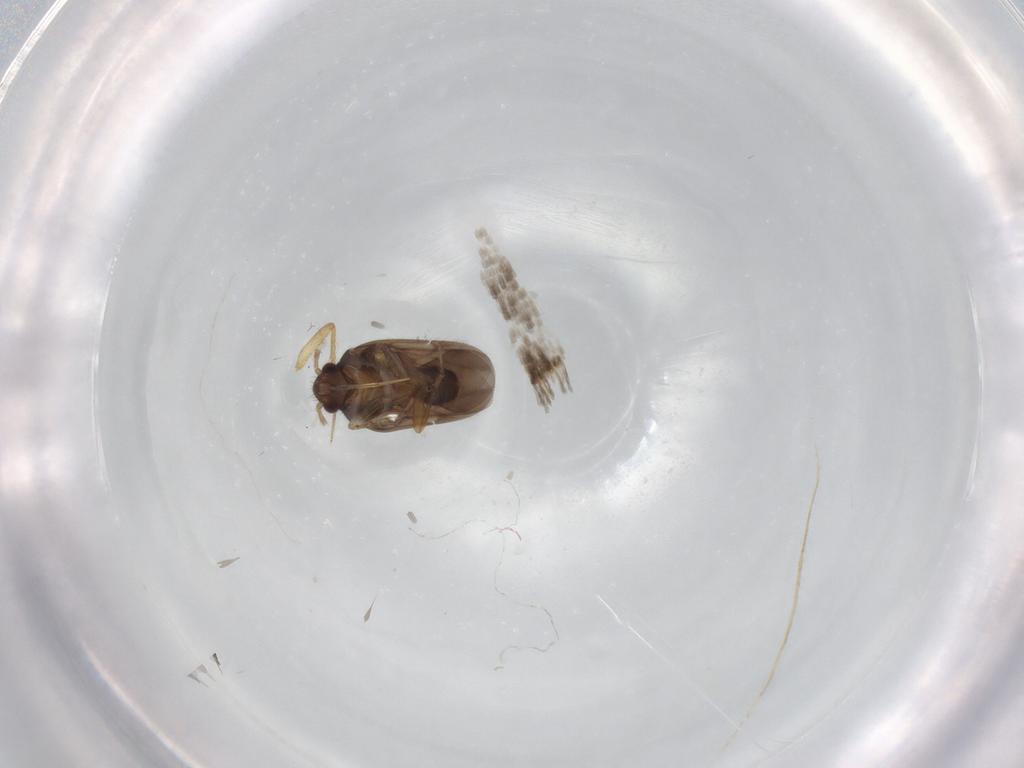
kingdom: Animalia
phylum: Arthropoda
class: Insecta
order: Hemiptera
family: Ceratocombidae
